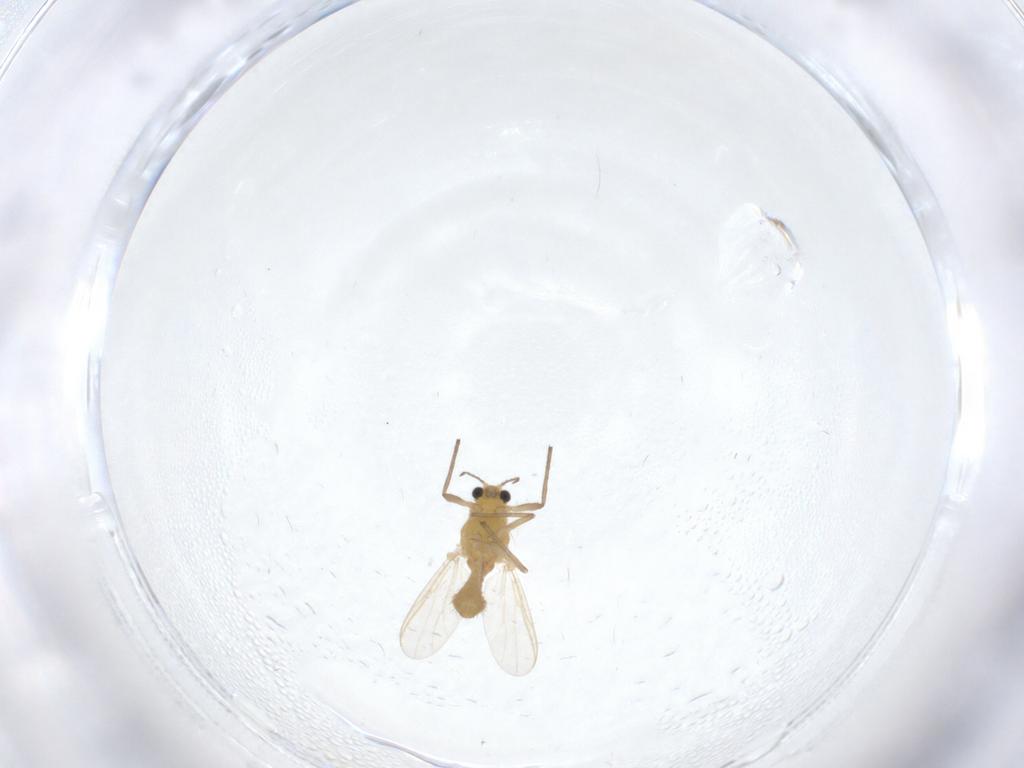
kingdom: Animalia
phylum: Arthropoda
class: Insecta
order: Diptera
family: Chironomidae
